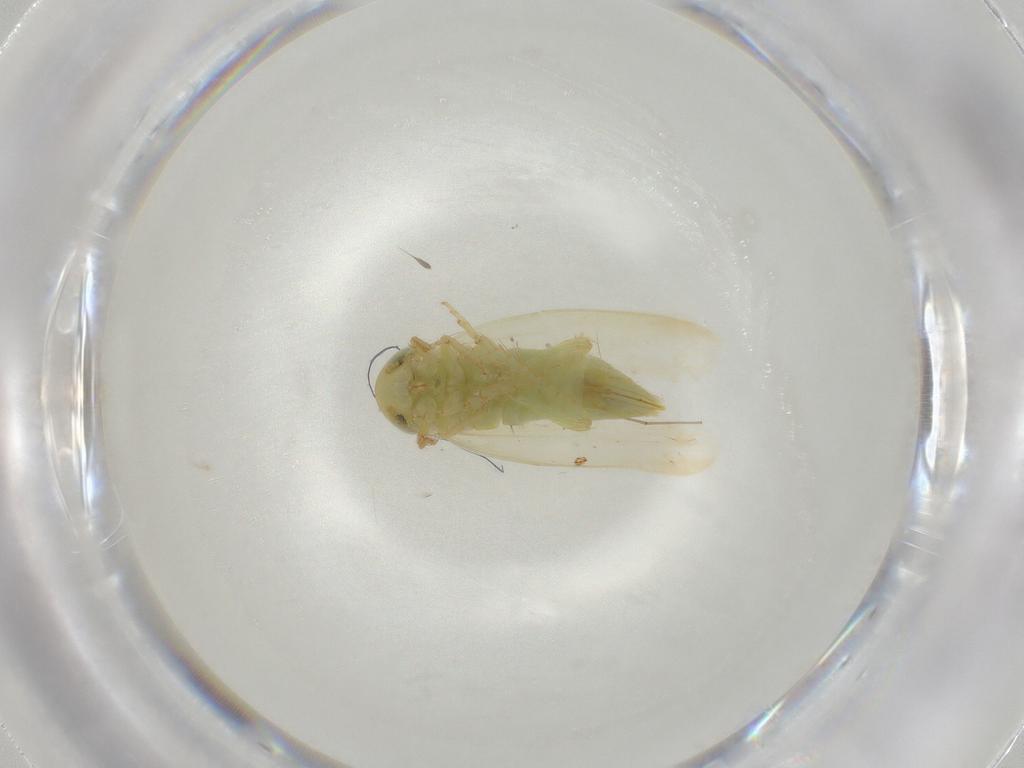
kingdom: Animalia
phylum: Arthropoda
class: Insecta
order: Hemiptera
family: Cicadellidae
